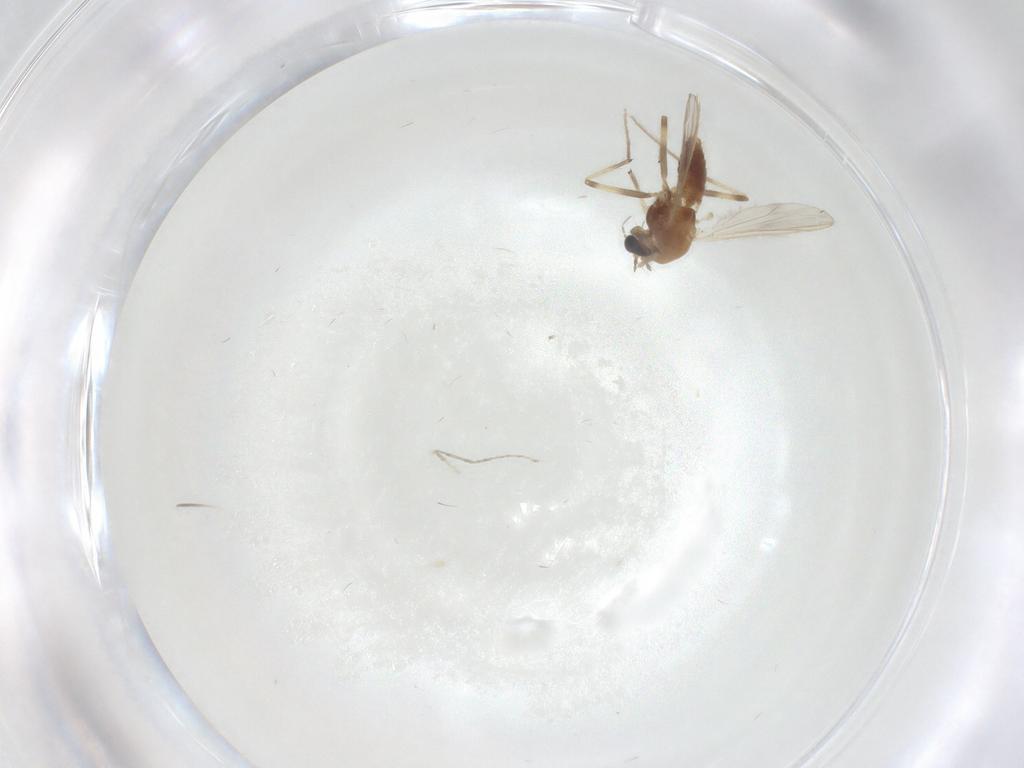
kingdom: Animalia
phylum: Arthropoda
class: Insecta
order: Diptera
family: Chironomidae
